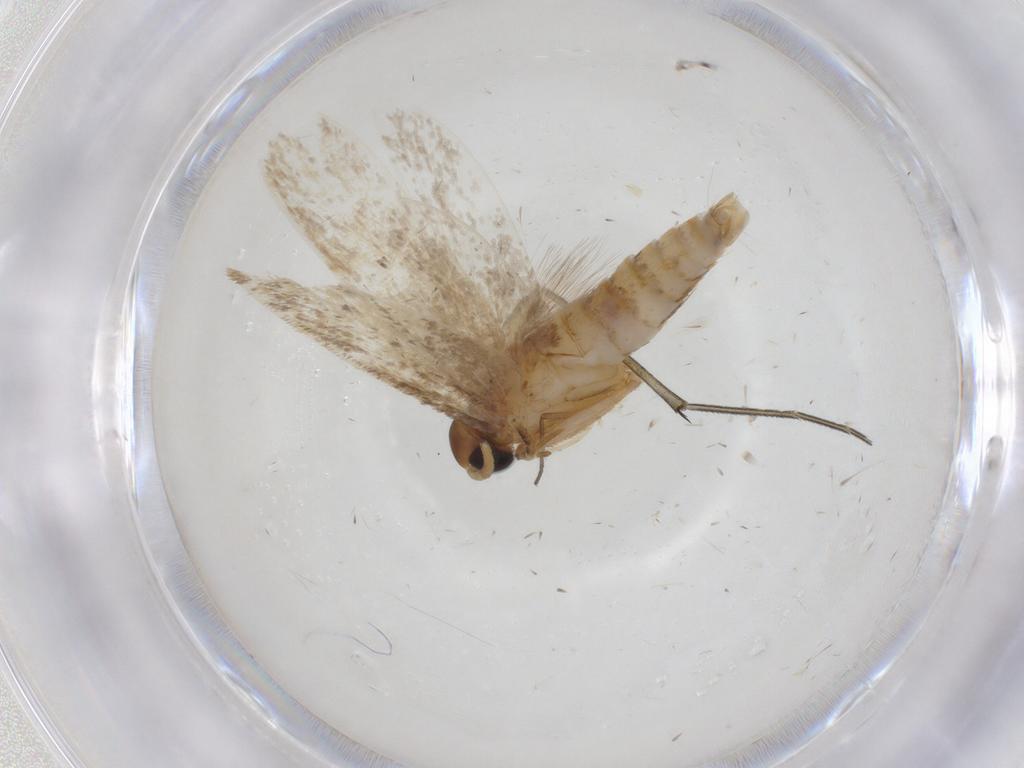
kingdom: Animalia
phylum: Arthropoda
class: Insecta
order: Lepidoptera
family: Oecophoridae
